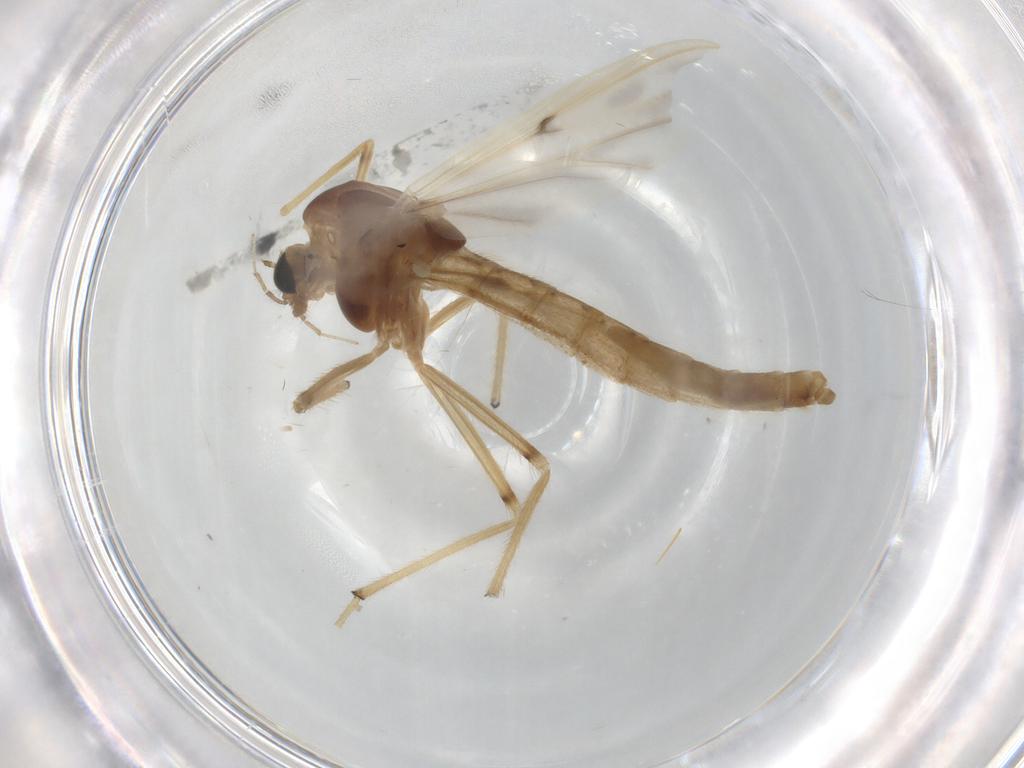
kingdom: Animalia
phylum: Arthropoda
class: Insecta
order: Diptera
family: Chironomidae
